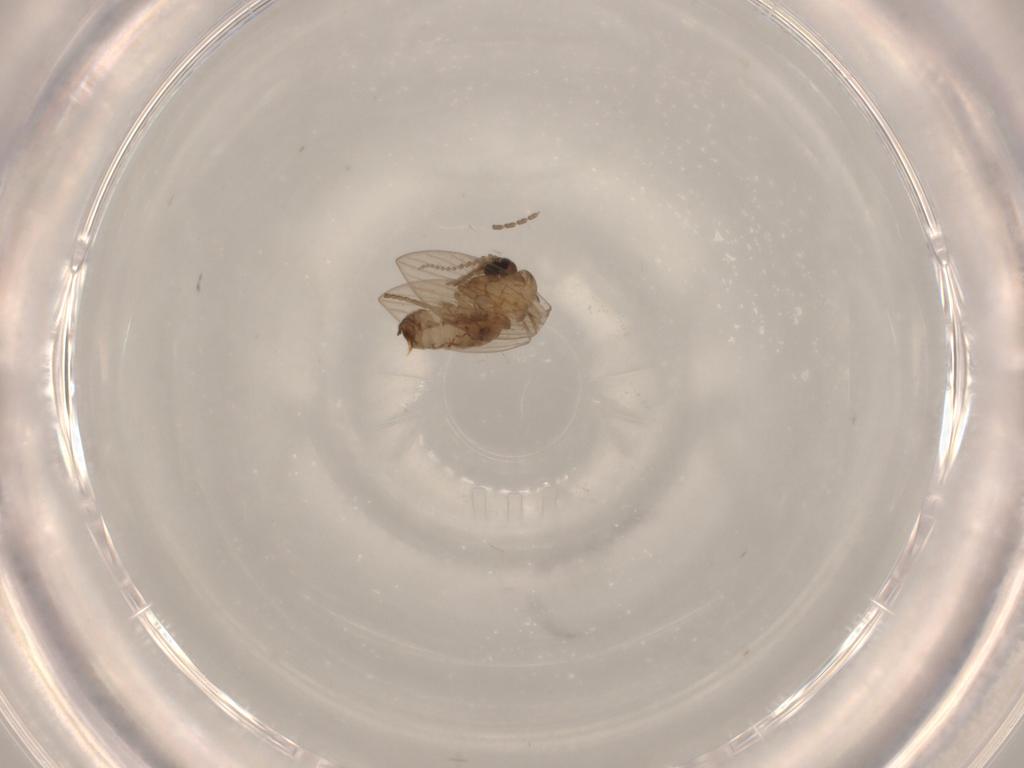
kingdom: Animalia
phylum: Arthropoda
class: Insecta
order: Diptera
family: Psychodidae
